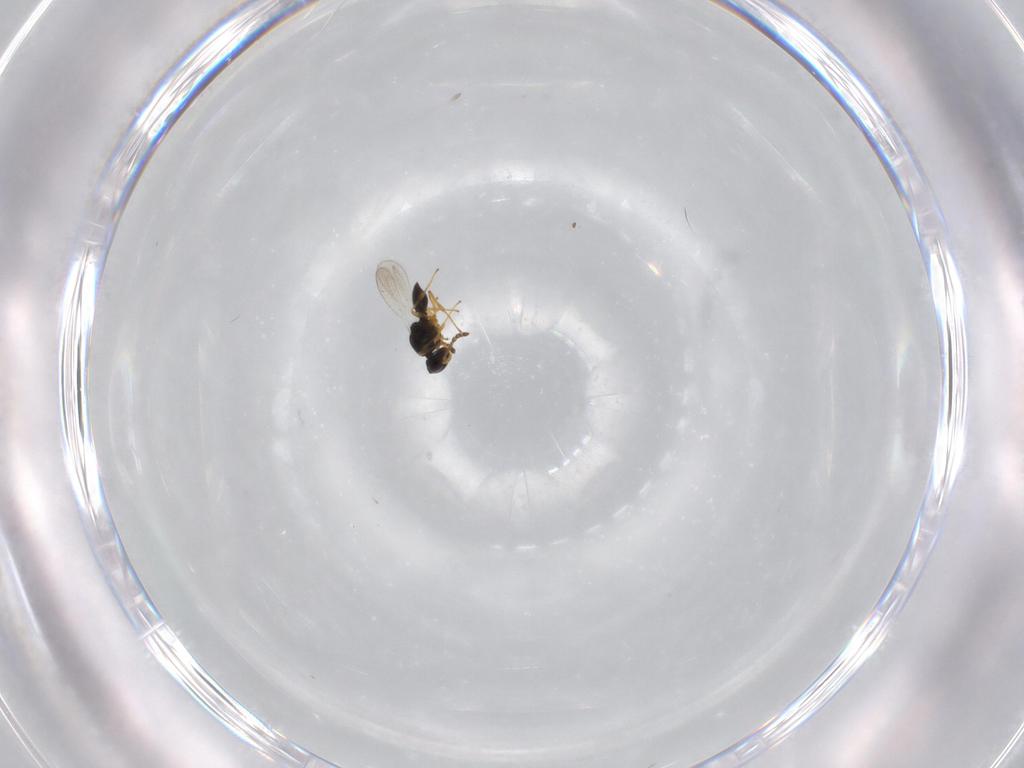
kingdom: Animalia
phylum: Arthropoda
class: Insecta
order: Hymenoptera
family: Platygastridae
